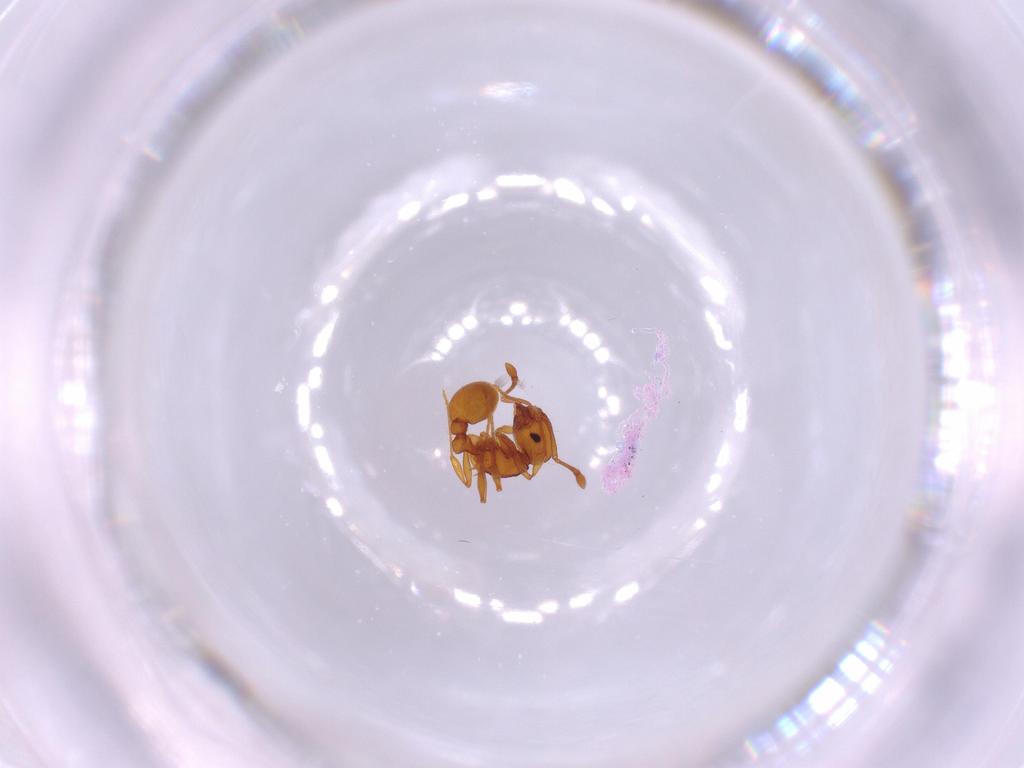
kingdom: Animalia
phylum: Arthropoda
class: Insecta
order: Hymenoptera
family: Formicidae
